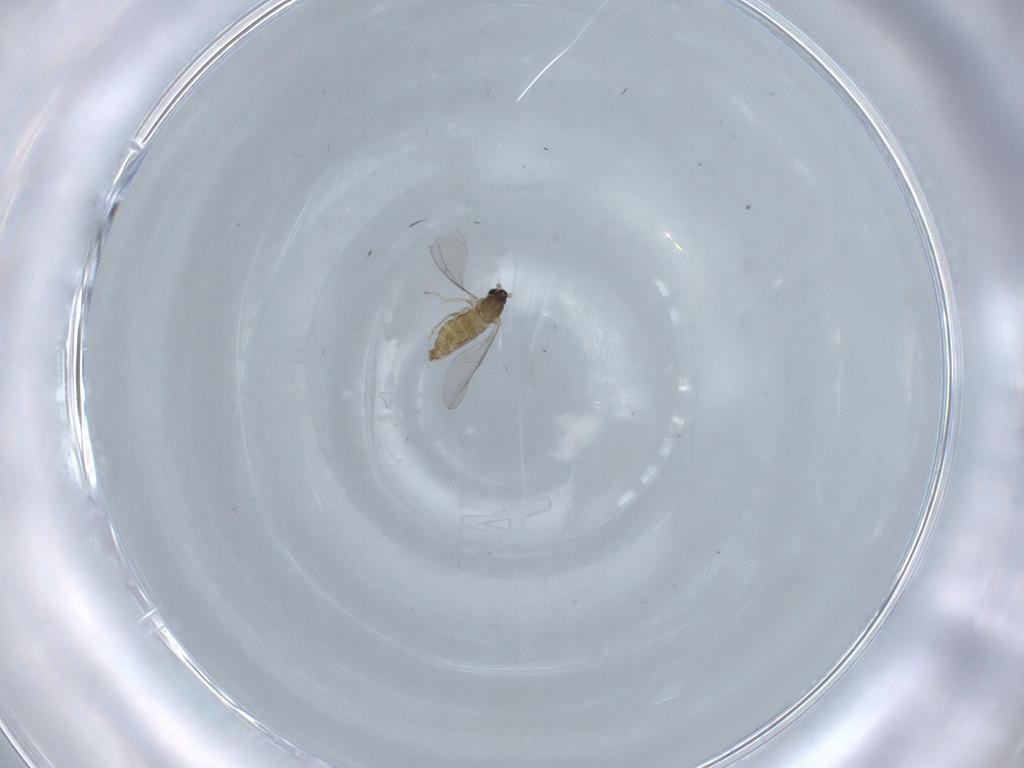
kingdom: Animalia
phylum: Arthropoda
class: Insecta
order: Diptera
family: Cecidomyiidae
